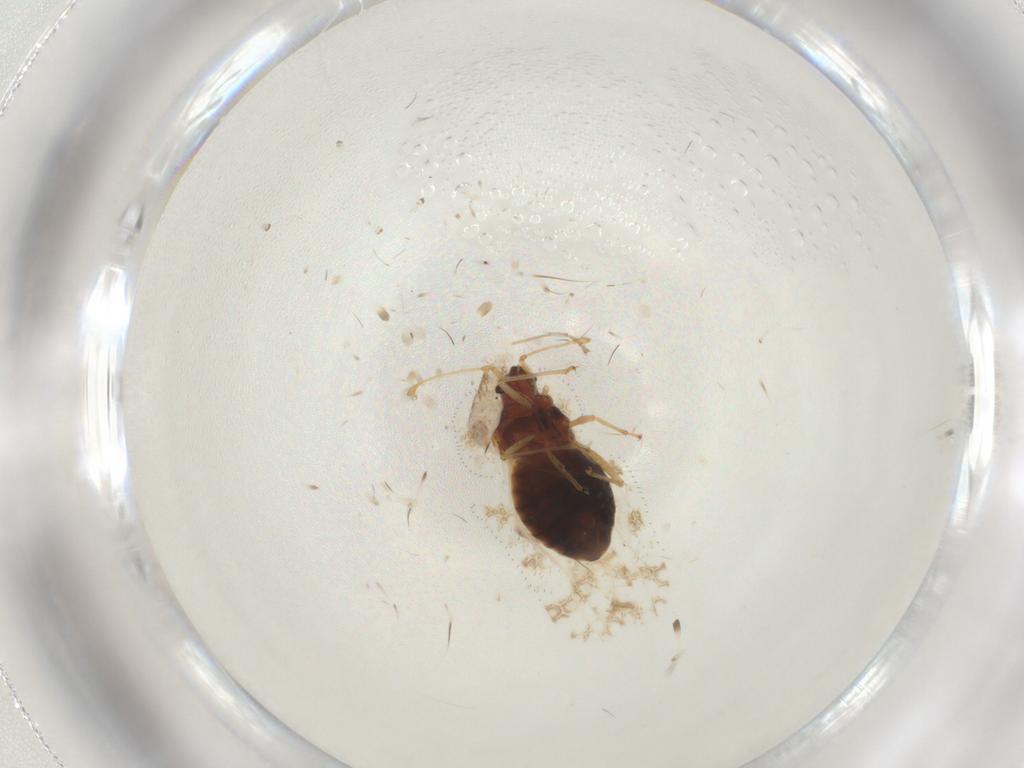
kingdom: Animalia
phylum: Arthropoda
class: Insecta
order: Hemiptera
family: Tingidae
